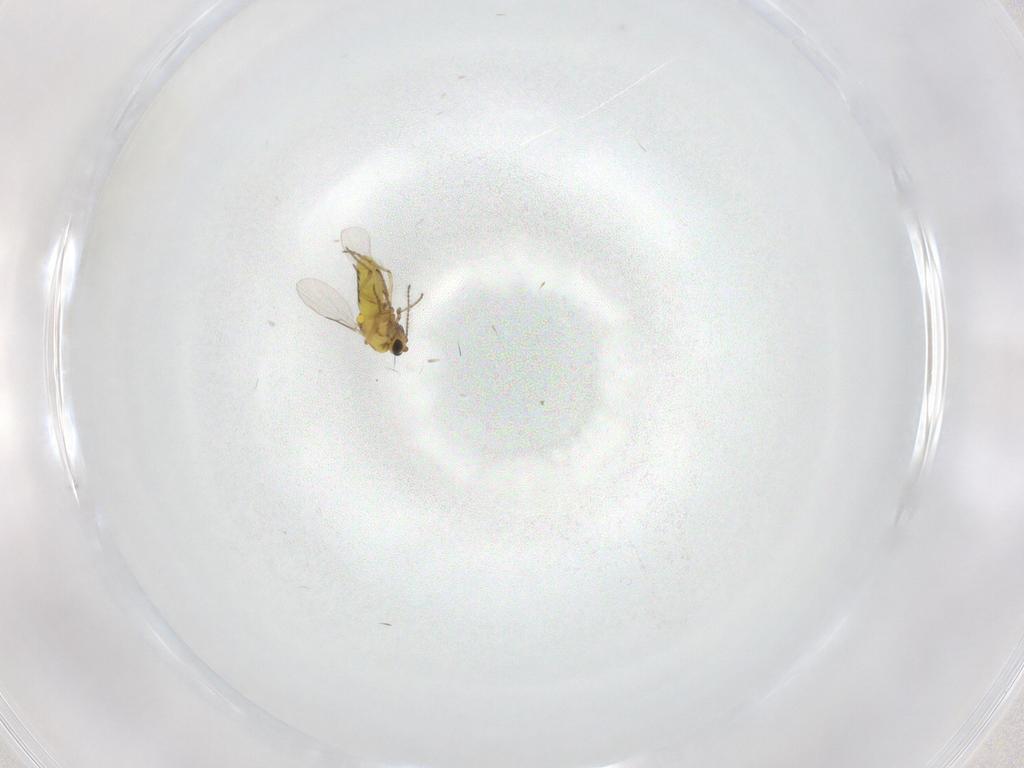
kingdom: Animalia
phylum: Arthropoda
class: Insecta
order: Diptera
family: Ceratopogonidae
